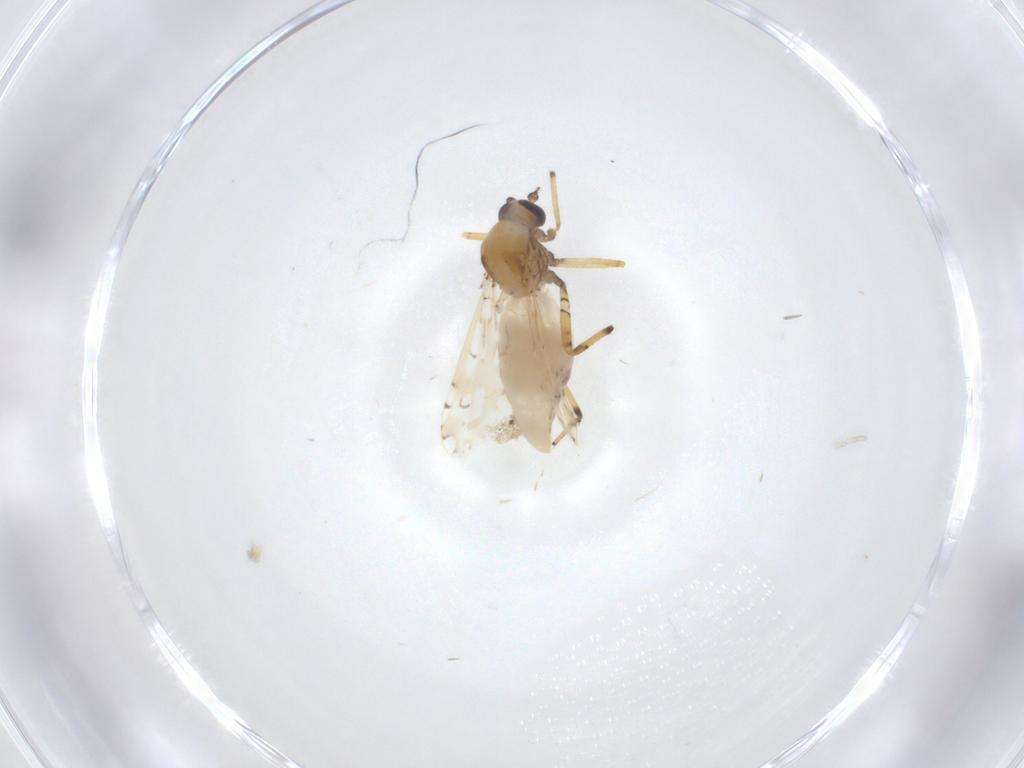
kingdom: Animalia
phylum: Arthropoda
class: Insecta
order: Diptera
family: Ceratopogonidae
